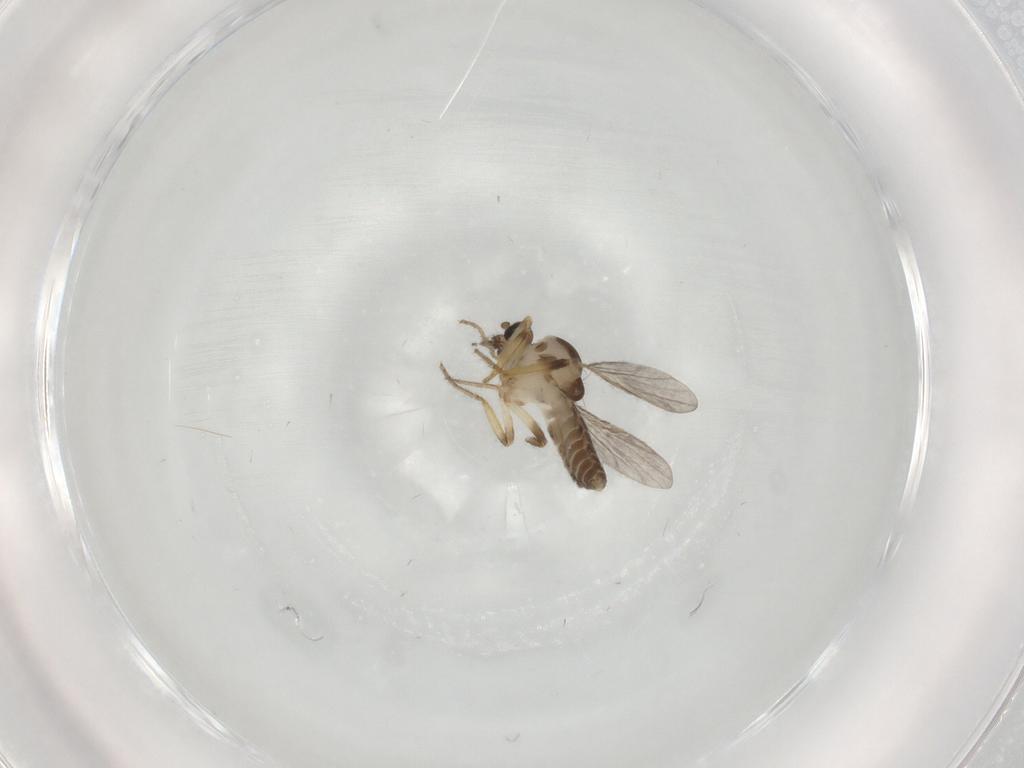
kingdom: Animalia
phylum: Arthropoda
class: Insecta
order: Diptera
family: Ceratopogonidae
